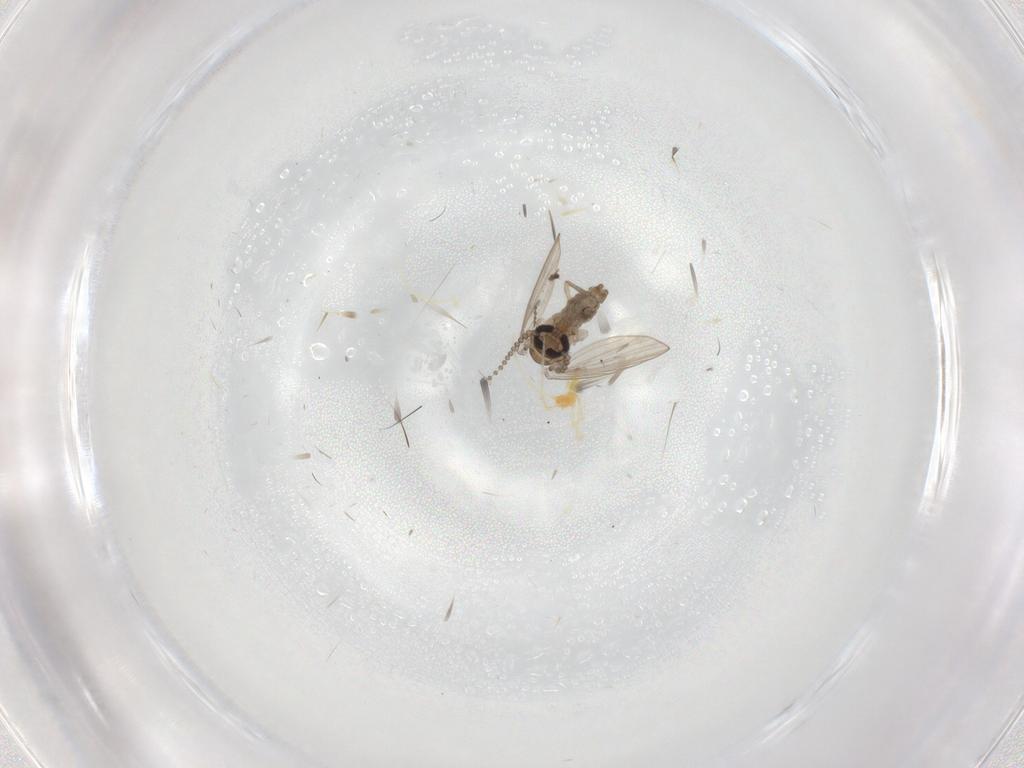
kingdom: Animalia
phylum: Arthropoda
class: Insecta
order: Diptera
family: Psychodidae
